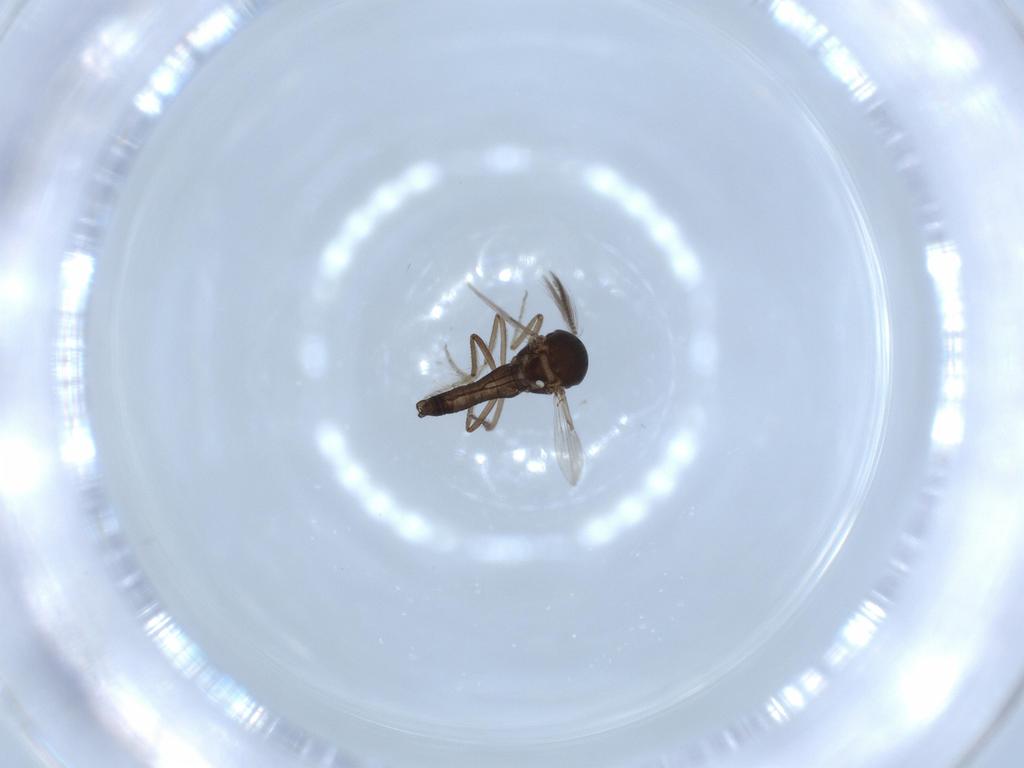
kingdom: Animalia
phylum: Arthropoda
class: Insecta
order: Diptera
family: Ceratopogonidae
